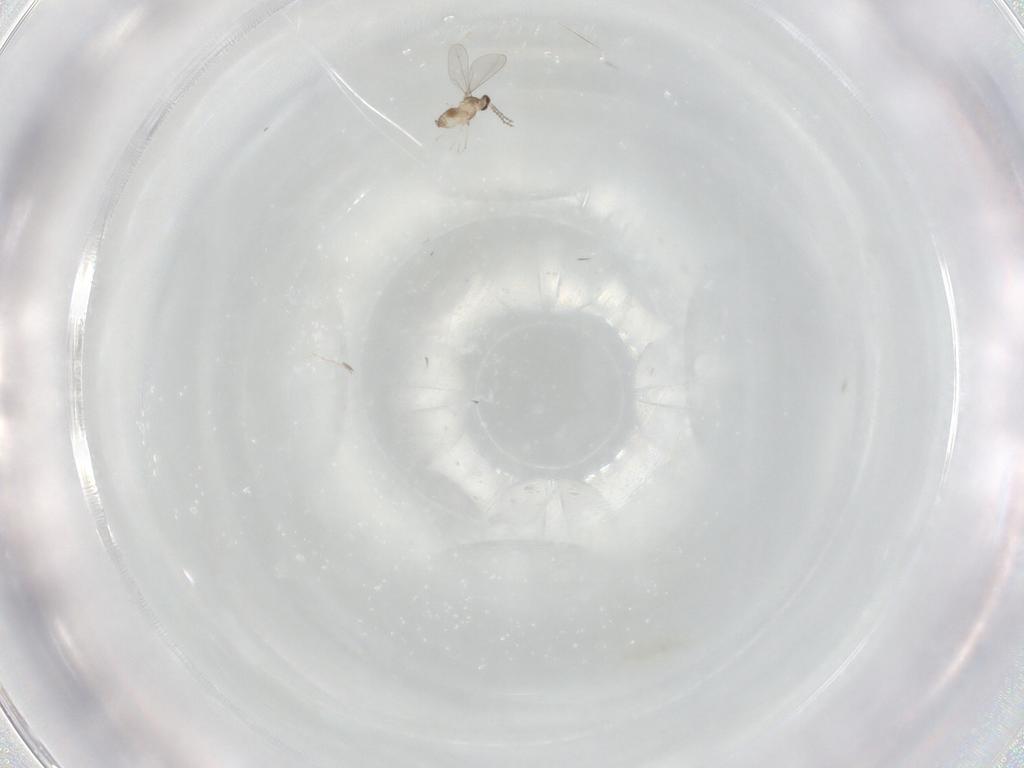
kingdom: Animalia
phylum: Arthropoda
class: Insecta
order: Diptera
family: Cecidomyiidae
